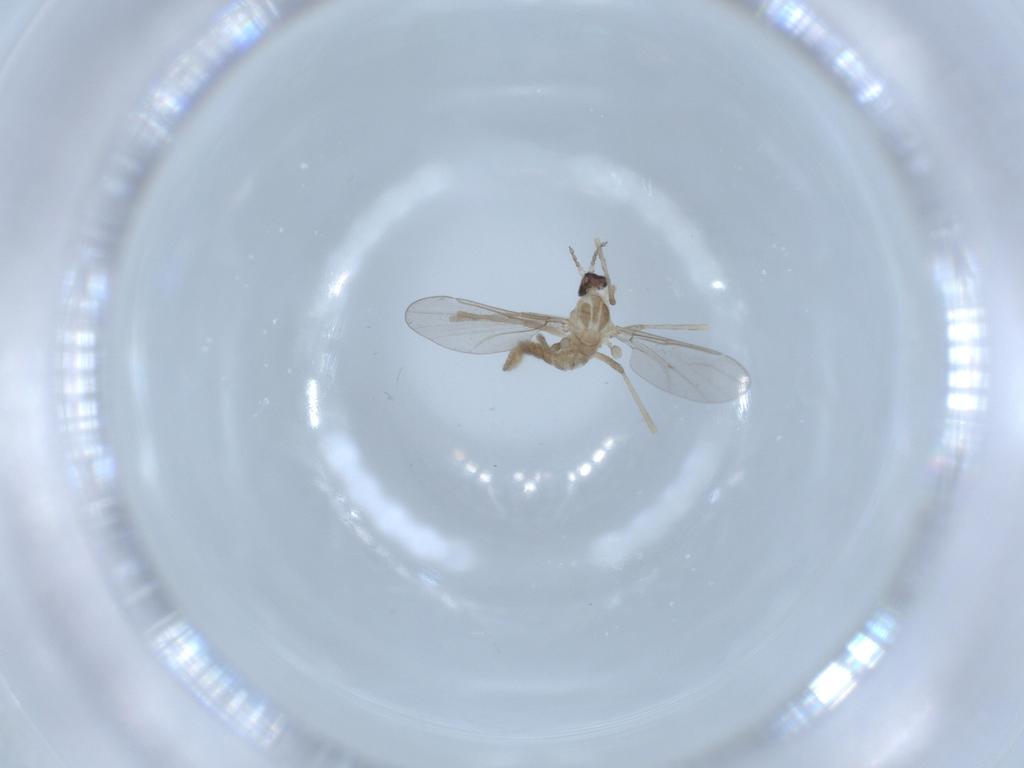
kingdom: Animalia
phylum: Arthropoda
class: Insecta
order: Diptera
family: Cecidomyiidae
